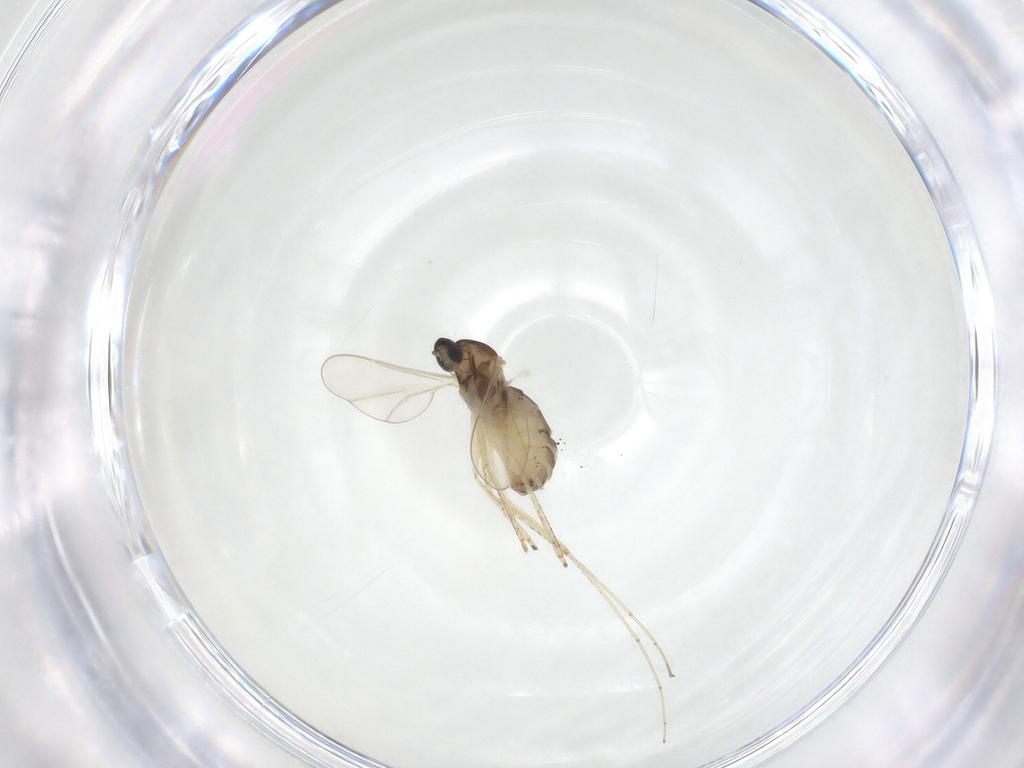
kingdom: Animalia
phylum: Arthropoda
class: Insecta
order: Diptera
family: Cecidomyiidae
